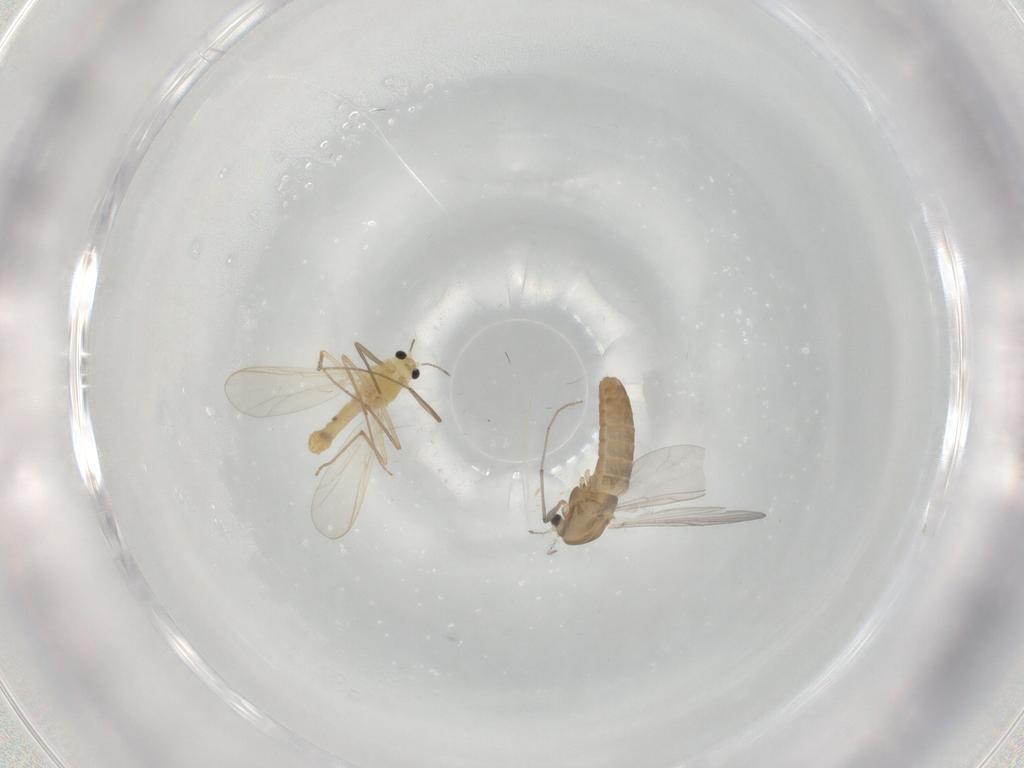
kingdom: Animalia
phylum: Arthropoda
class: Insecta
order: Diptera
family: Chironomidae
